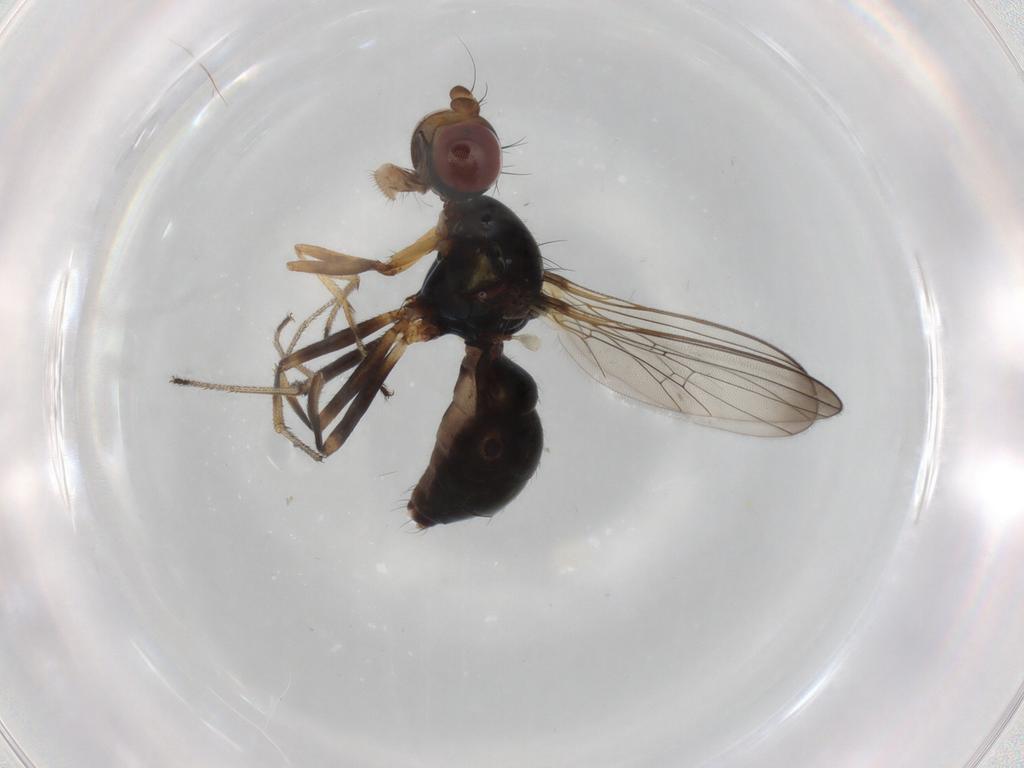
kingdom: Animalia
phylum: Arthropoda
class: Insecta
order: Diptera
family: Sepsidae
